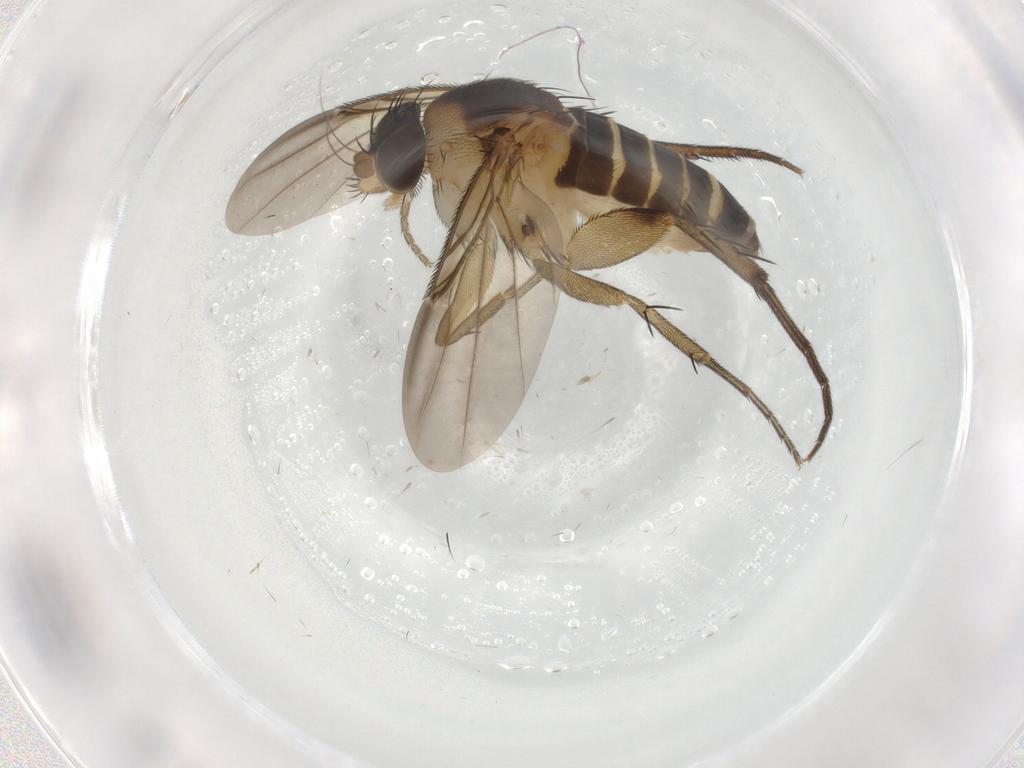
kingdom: Animalia
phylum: Arthropoda
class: Insecta
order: Diptera
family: Phoridae
